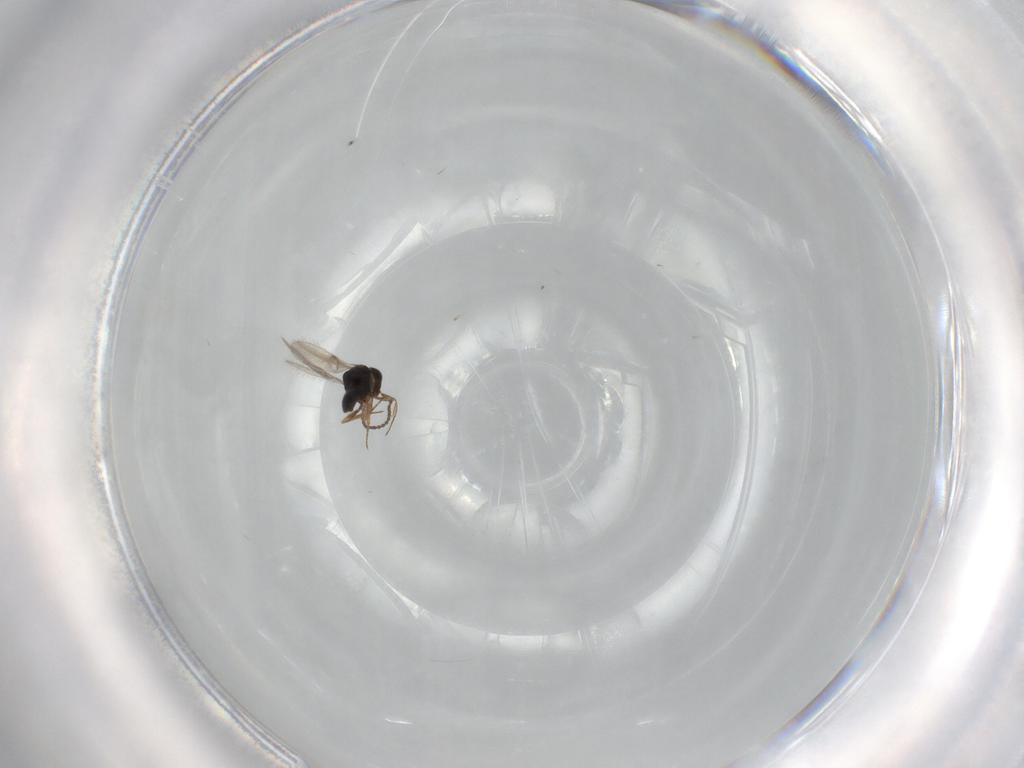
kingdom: Animalia
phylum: Arthropoda
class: Insecta
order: Hymenoptera
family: Scelionidae
